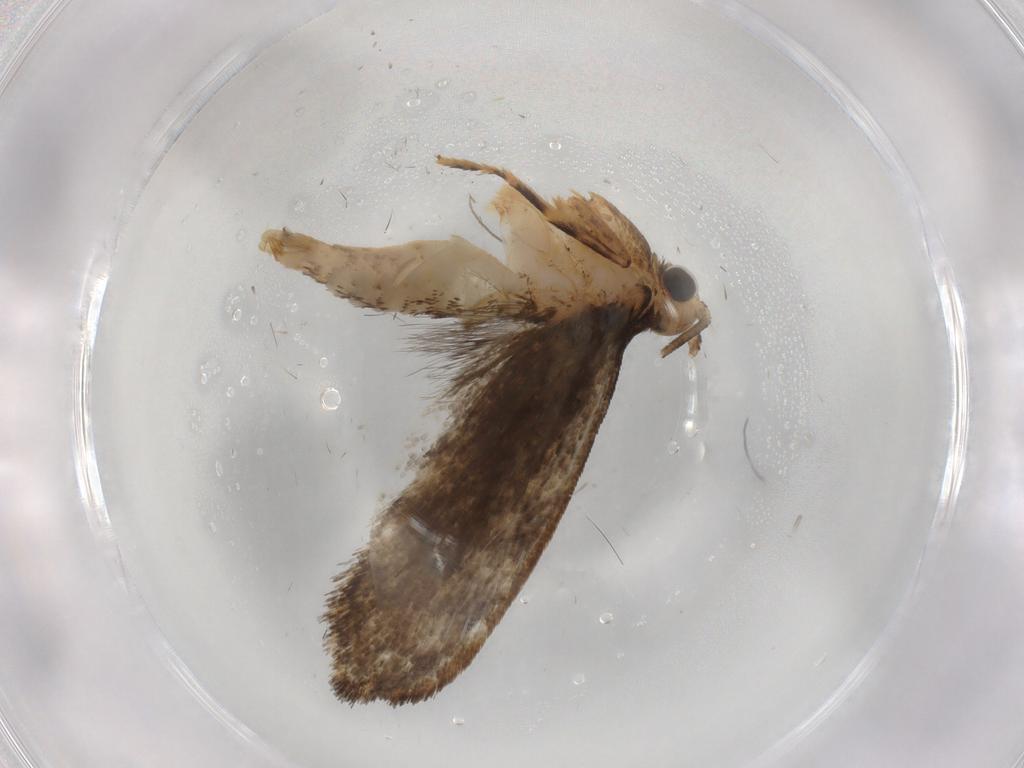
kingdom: Animalia
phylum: Arthropoda
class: Insecta
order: Lepidoptera
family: Tineidae
